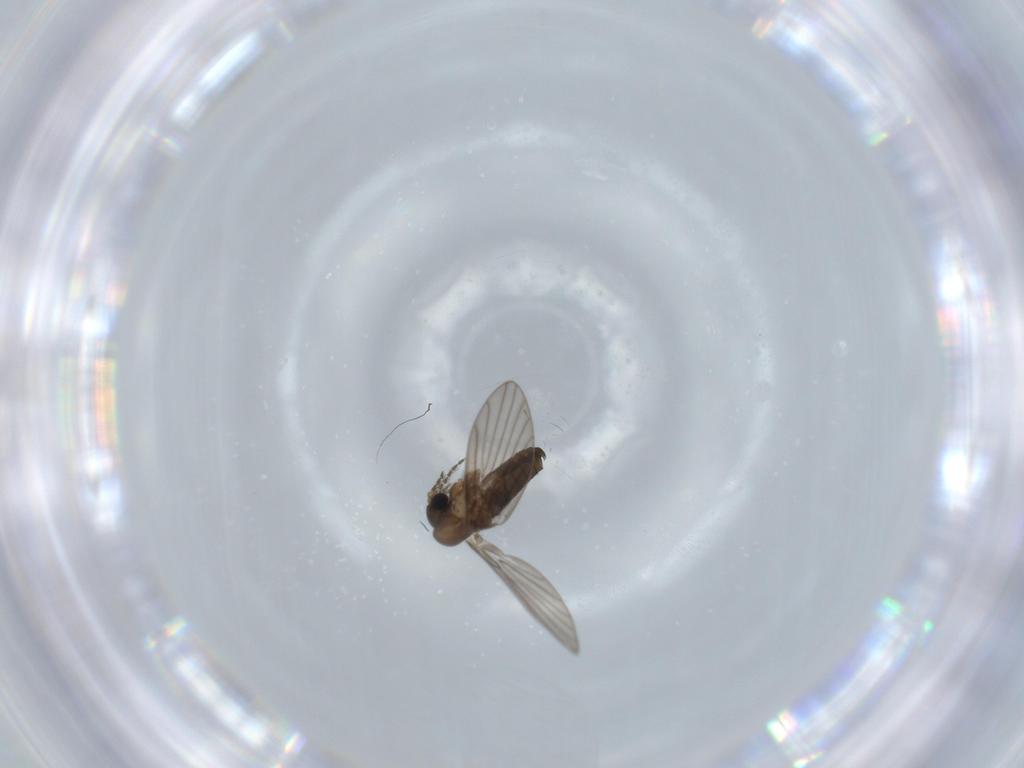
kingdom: Animalia
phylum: Arthropoda
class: Insecta
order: Diptera
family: Psychodidae
